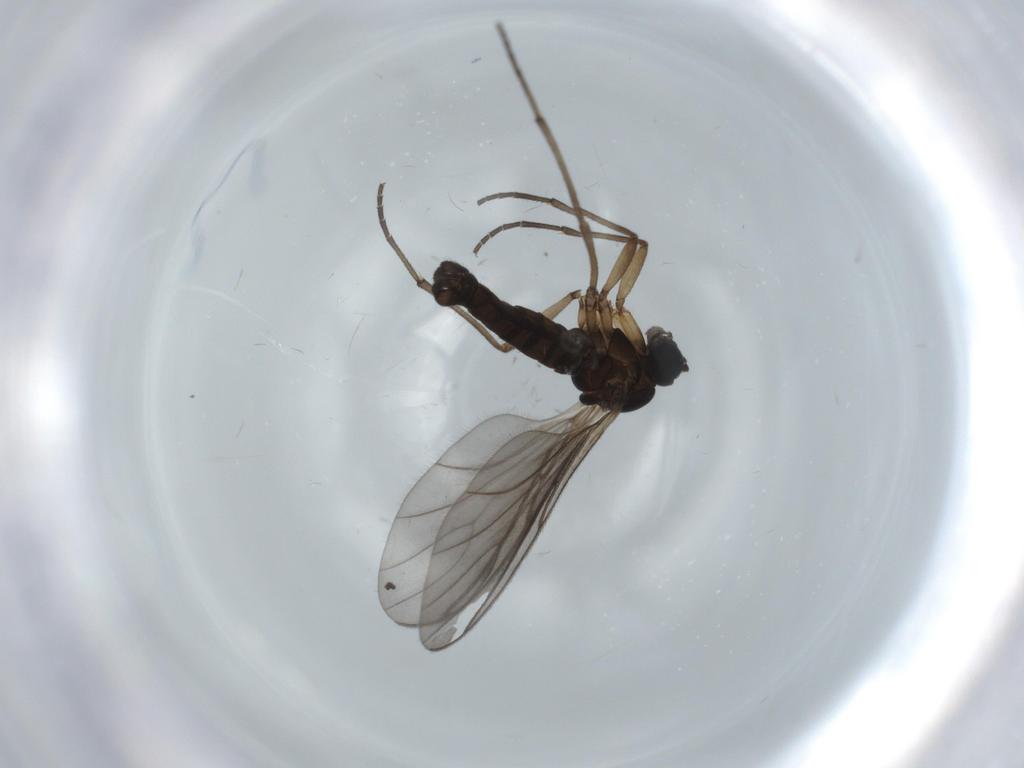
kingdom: Animalia
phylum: Arthropoda
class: Insecta
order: Diptera
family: Sciaridae
